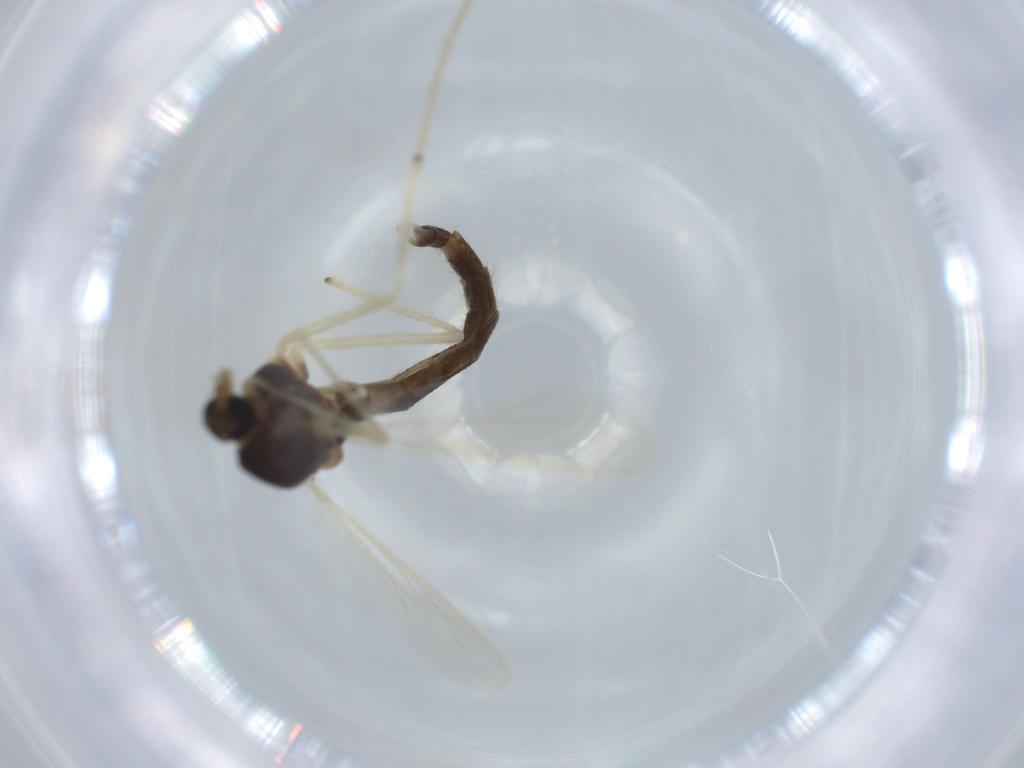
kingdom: Animalia
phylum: Arthropoda
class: Insecta
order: Diptera
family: Chironomidae
